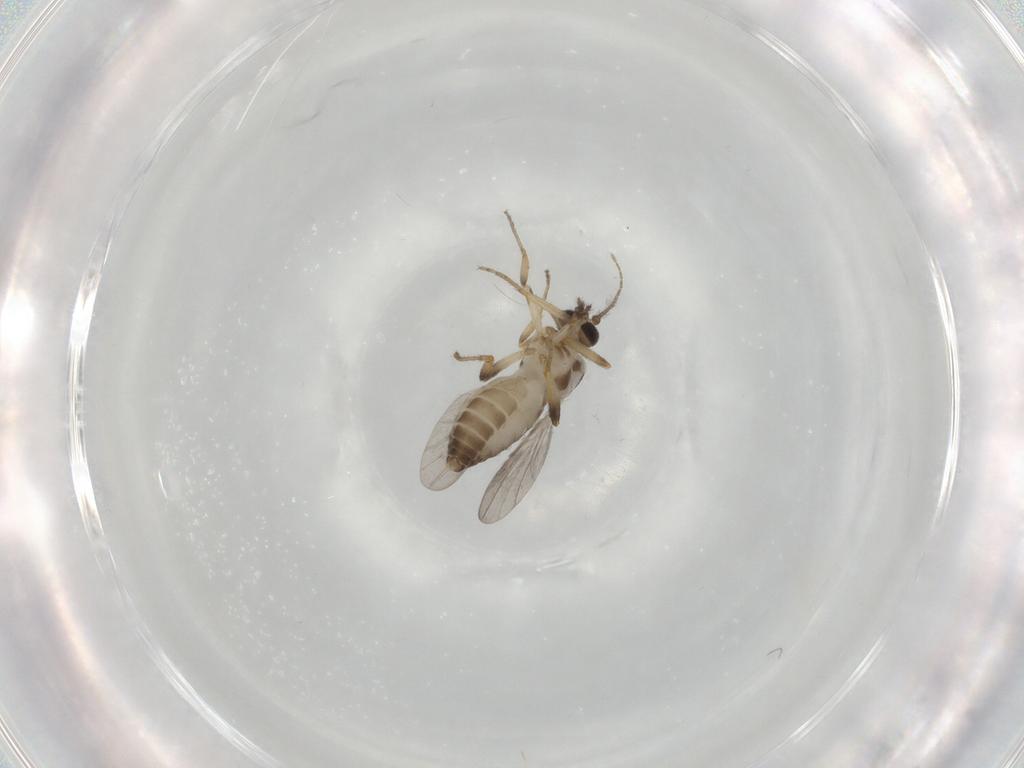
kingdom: Animalia
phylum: Arthropoda
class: Insecta
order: Diptera
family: Ceratopogonidae
